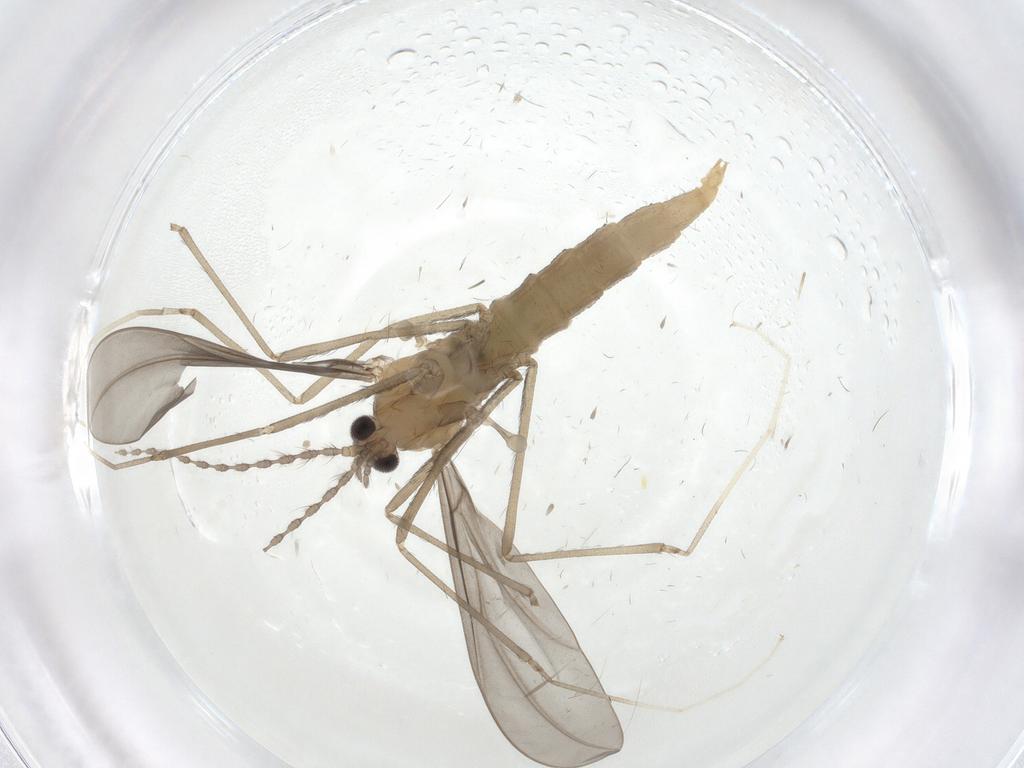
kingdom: Animalia
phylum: Arthropoda
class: Insecta
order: Diptera
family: Cecidomyiidae
